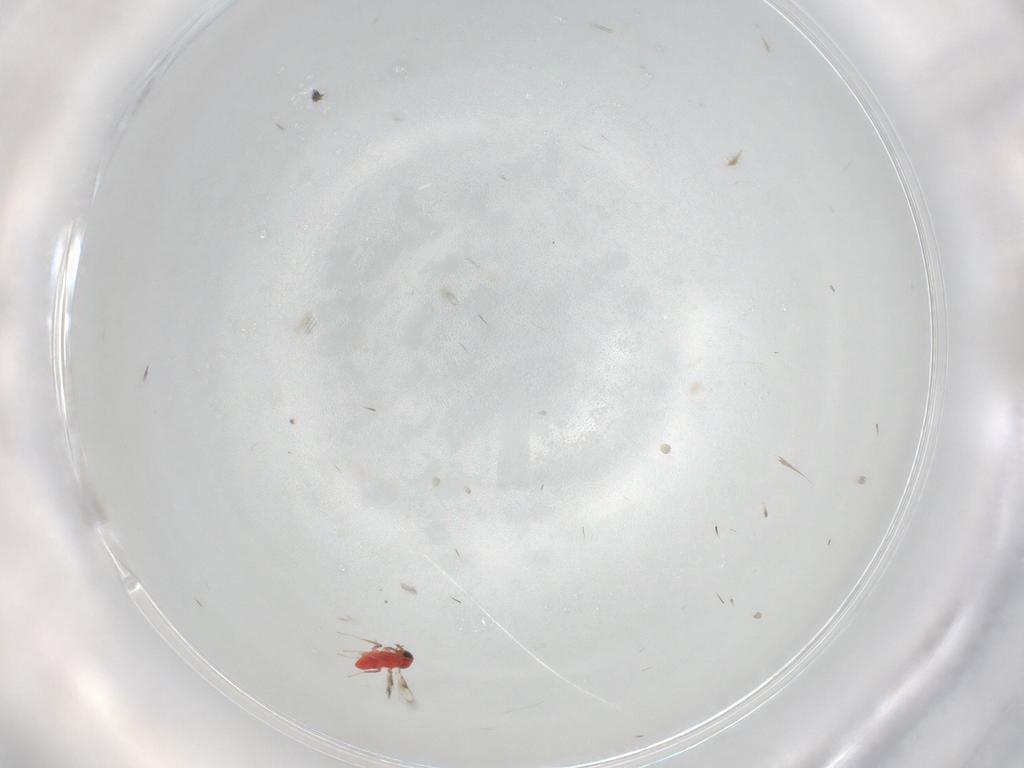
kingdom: Animalia
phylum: Arthropoda
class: Insecta
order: Hymenoptera
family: Trichogrammatidae
